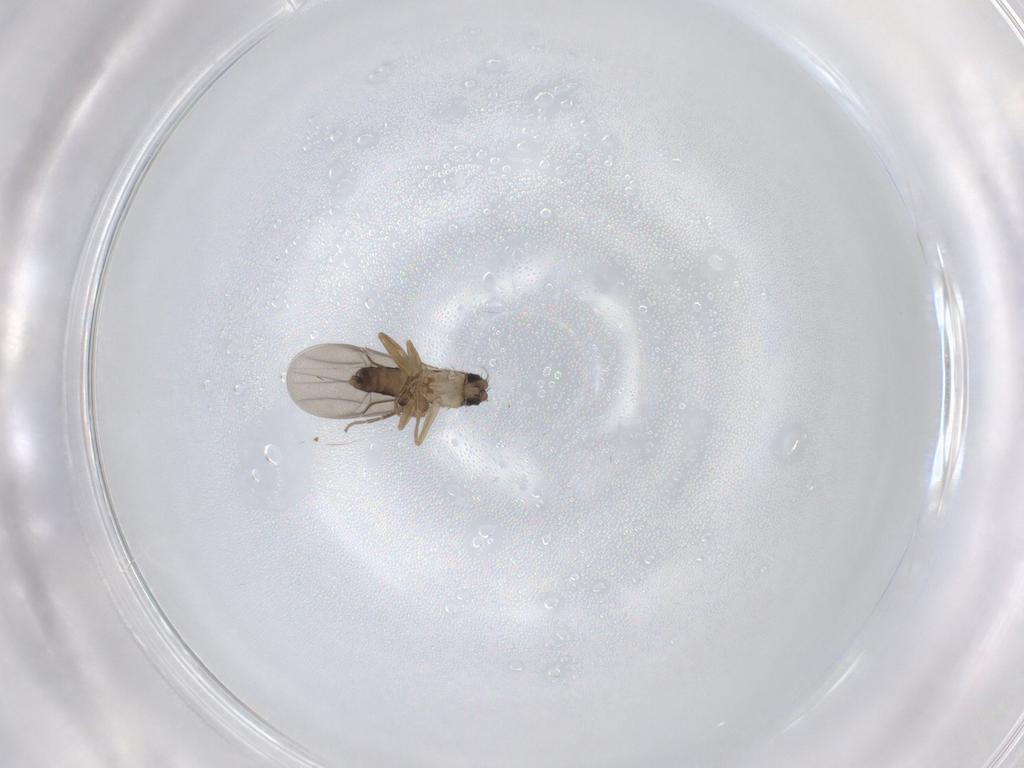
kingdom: Animalia
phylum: Arthropoda
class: Insecta
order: Diptera
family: Phoridae
